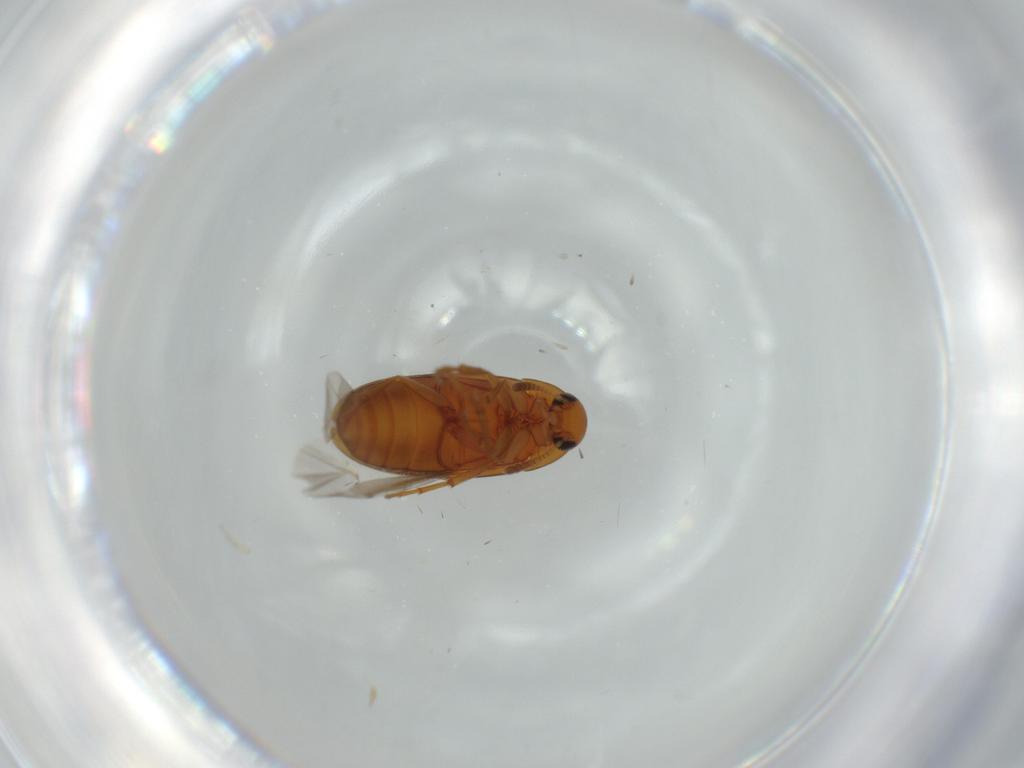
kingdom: Animalia
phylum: Arthropoda
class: Insecta
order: Coleoptera
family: Scraptiidae
